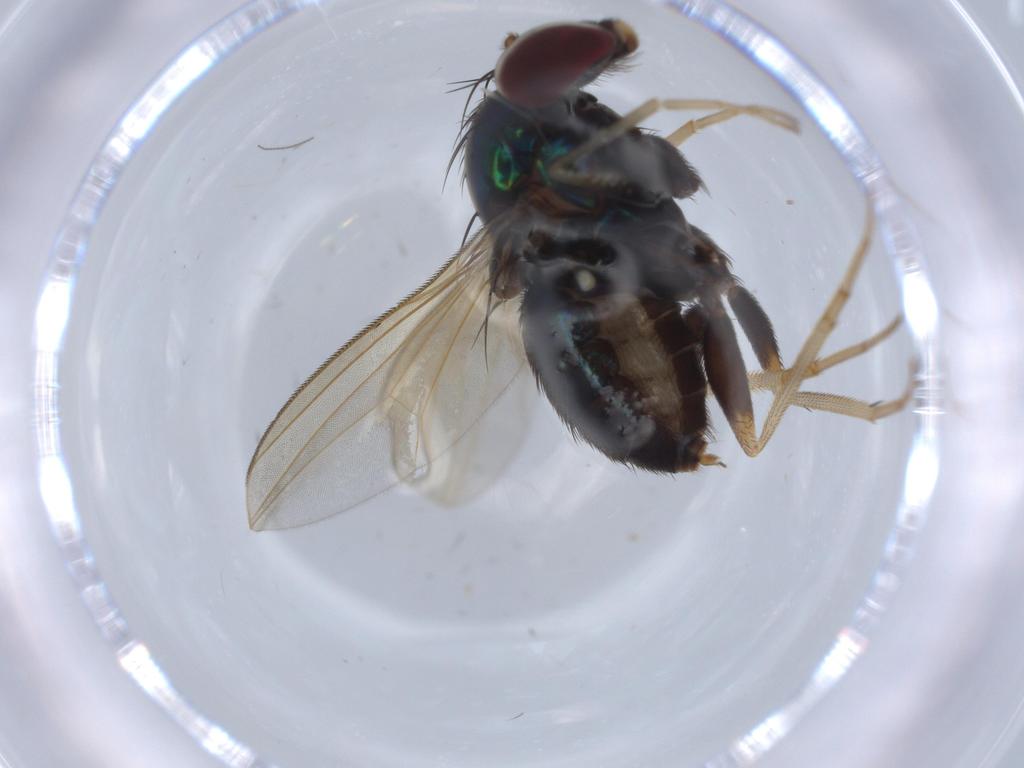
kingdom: Animalia
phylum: Arthropoda
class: Insecta
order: Diptera
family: Dolichopodidae
